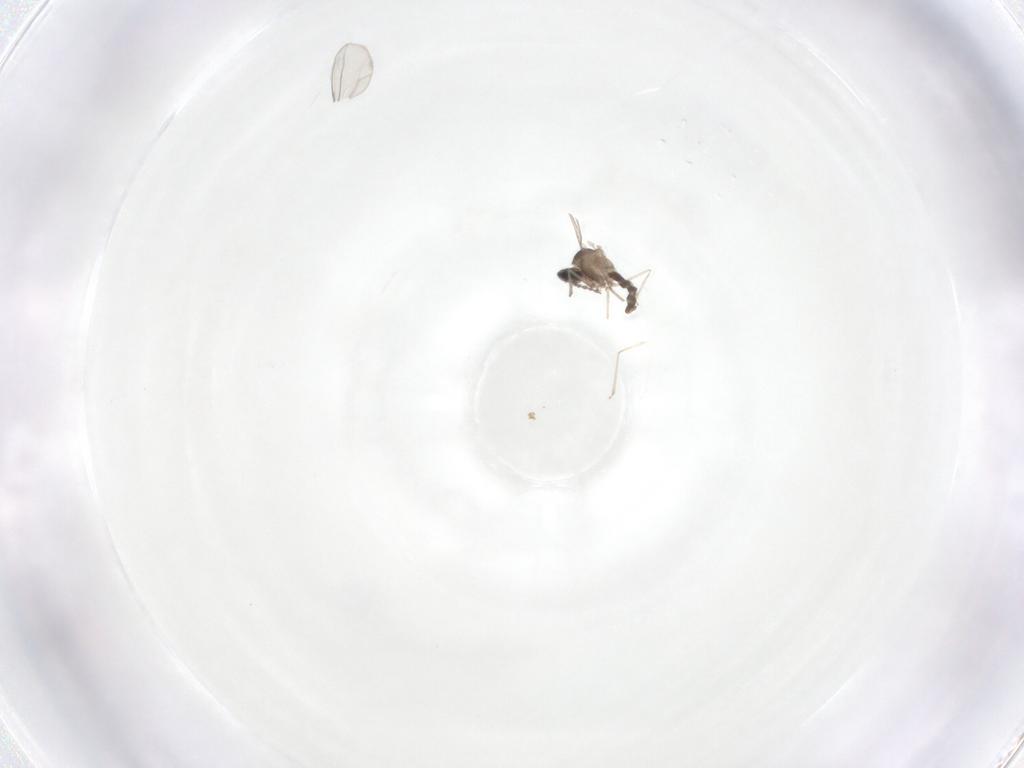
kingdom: Animalia
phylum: Arthropoda
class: Insecta
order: Diptera
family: Cecidomyiidae
